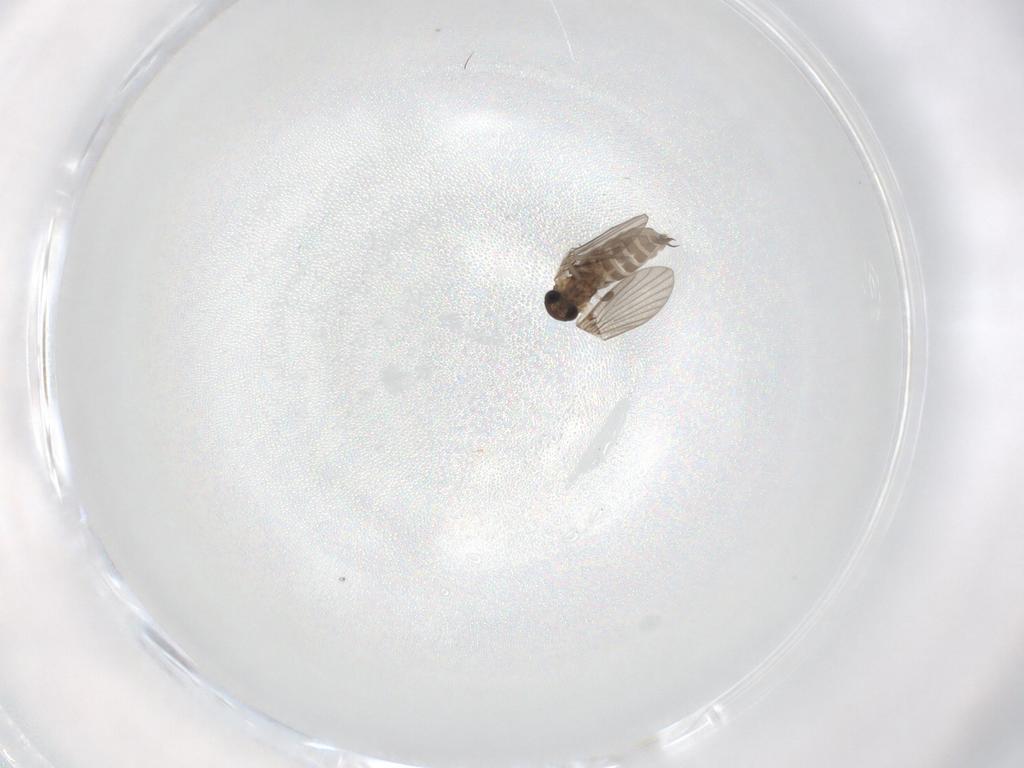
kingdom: Animalia
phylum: Arthropoda
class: Insecta
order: Diptera
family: Phoridae
